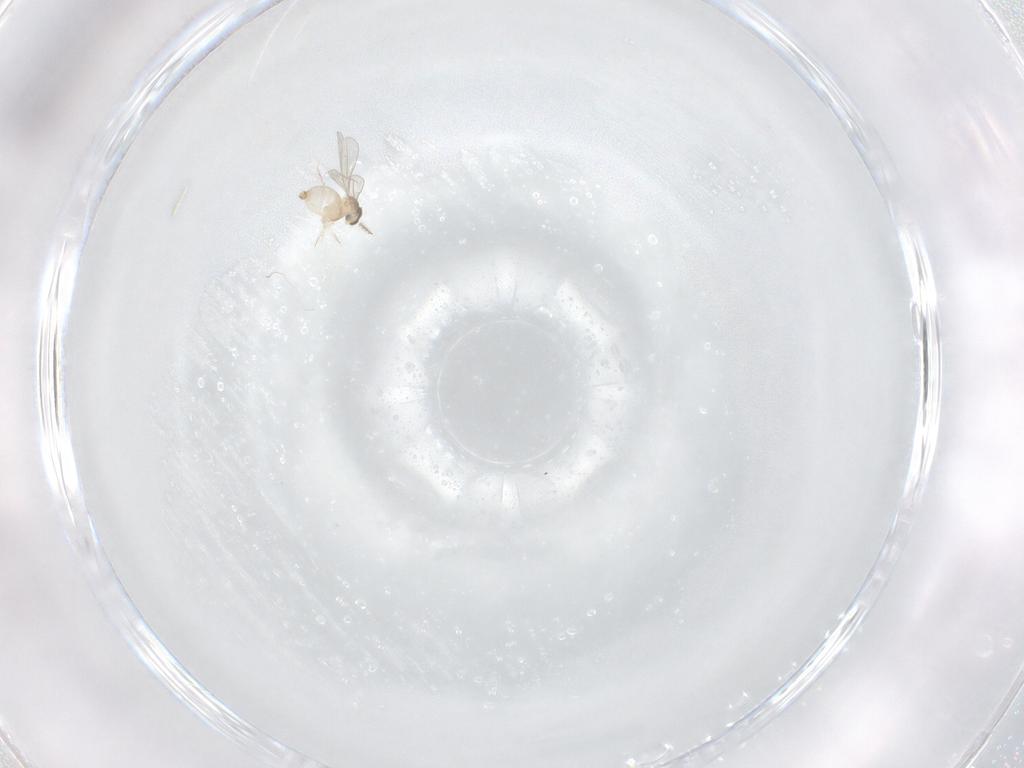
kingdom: Animalia
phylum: Arthropoda
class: Insecta
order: Diptera
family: Cecidomyiidae
